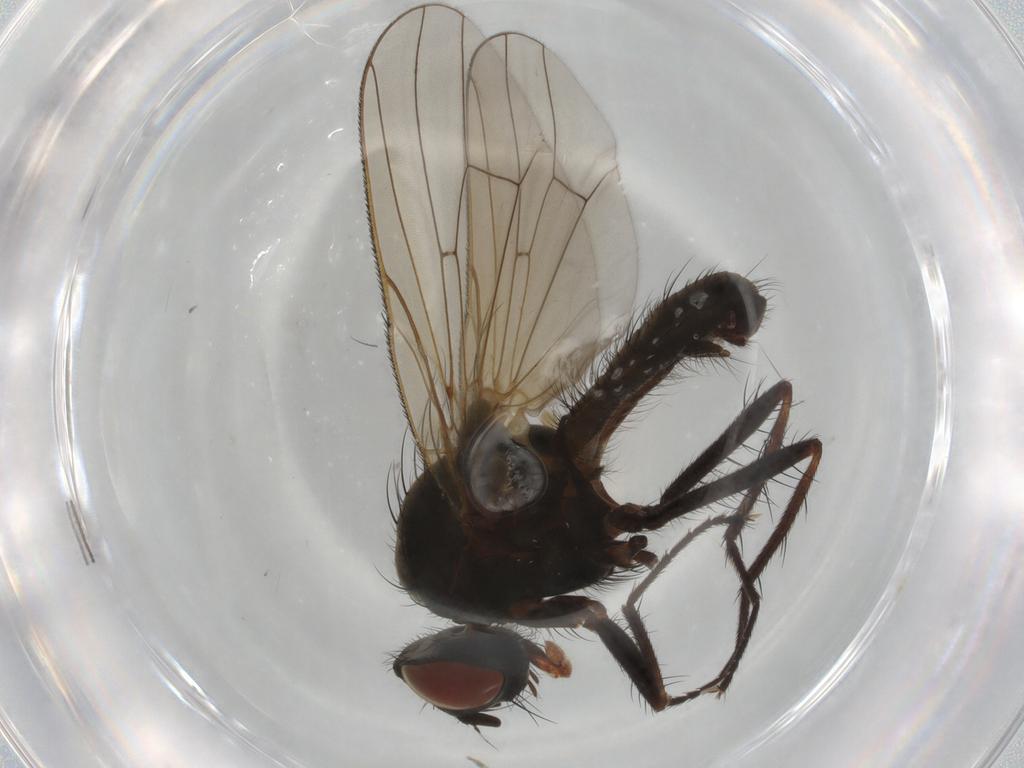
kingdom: Animalia
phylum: Arthropoda
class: Insecta
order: Diptera
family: Anthomyiidae
